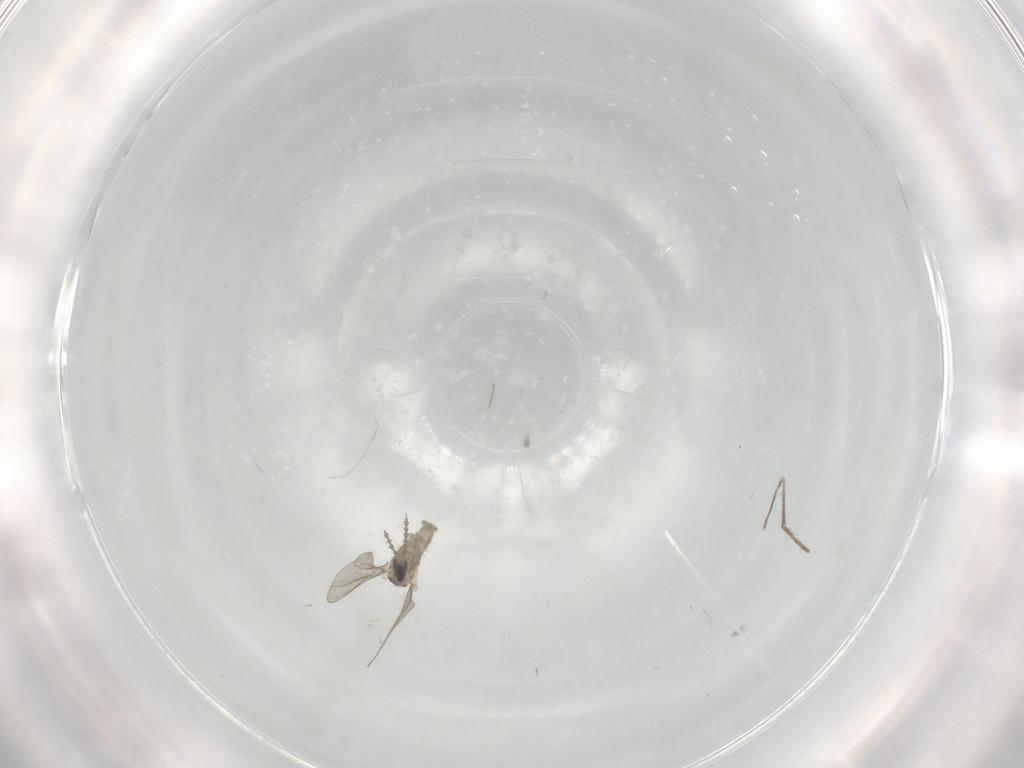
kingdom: Animalia
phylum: Arthropoda
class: Insecta
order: Diptera
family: Cecidomyiidae
